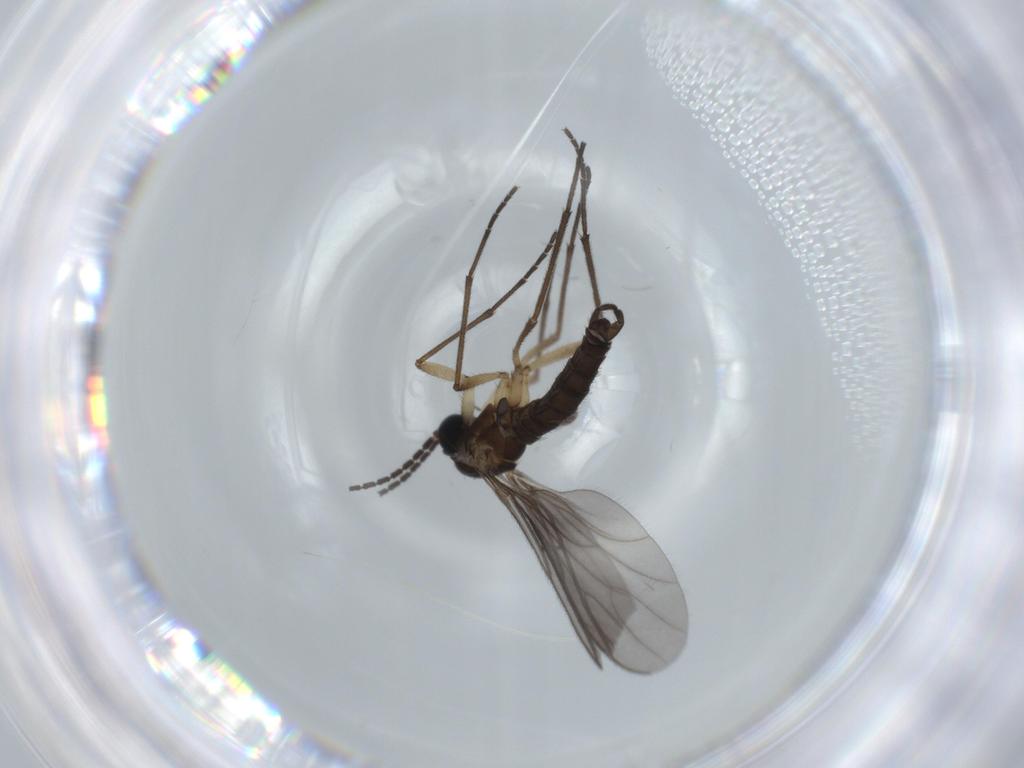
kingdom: Animalia
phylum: Arthropoda
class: Insecta
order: Diptera
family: Sciaridae
